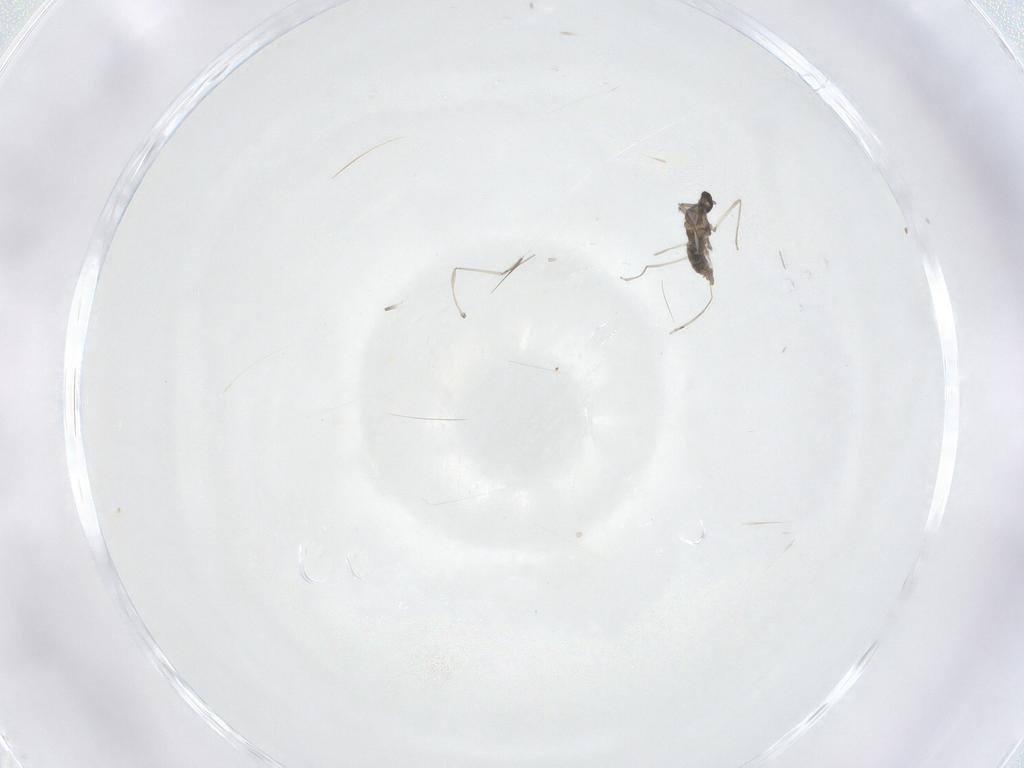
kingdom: Animalia
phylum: Arthropoda
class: Insecta
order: Diptera
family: Cecidomyiidae
